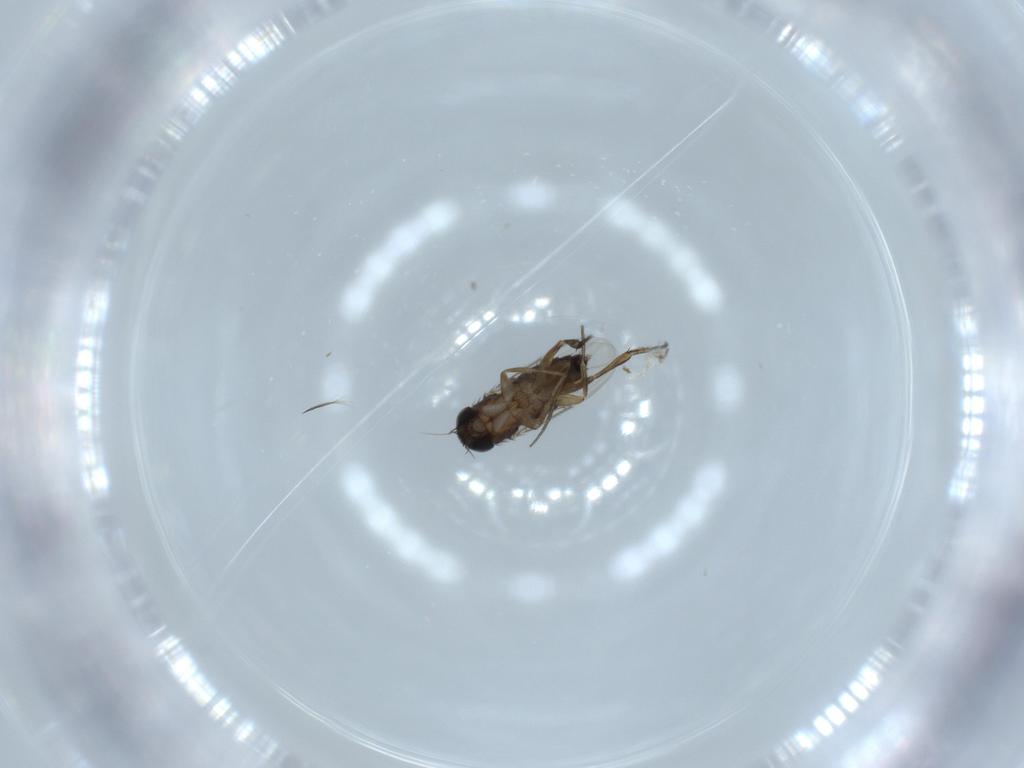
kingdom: Animalia
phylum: Arthropoda
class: Insecta
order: Diptera
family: Phoridae
